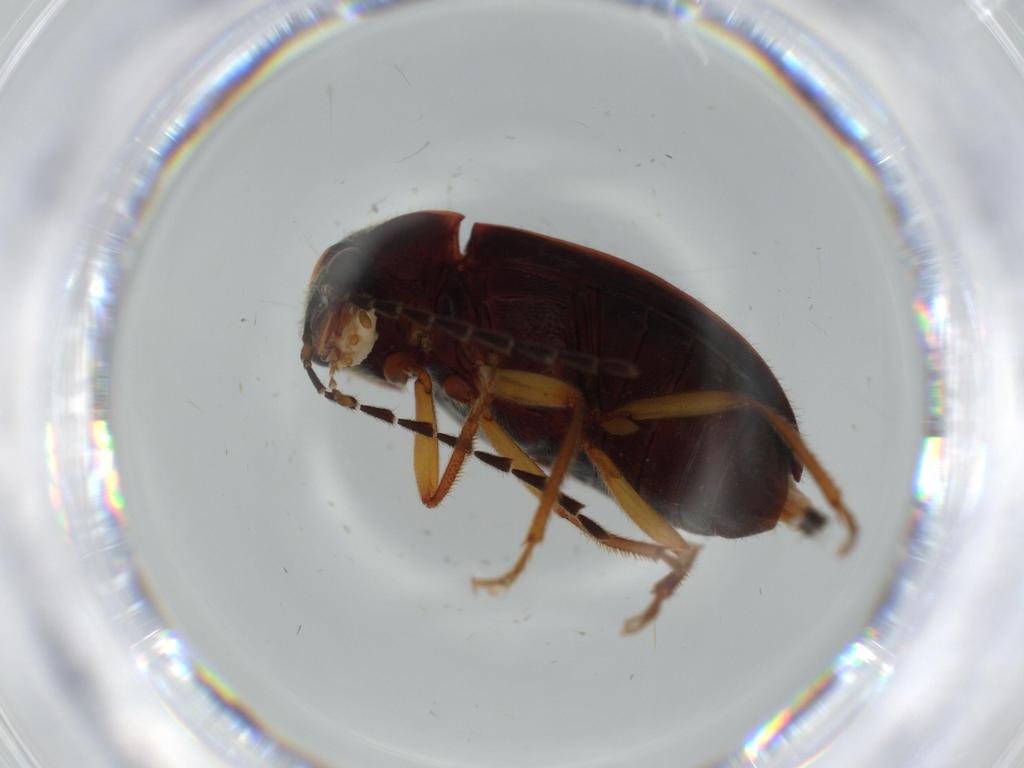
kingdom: Animalia
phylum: Arthropoda
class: Insecta
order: Coleoptera
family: Ptilodactylidae
